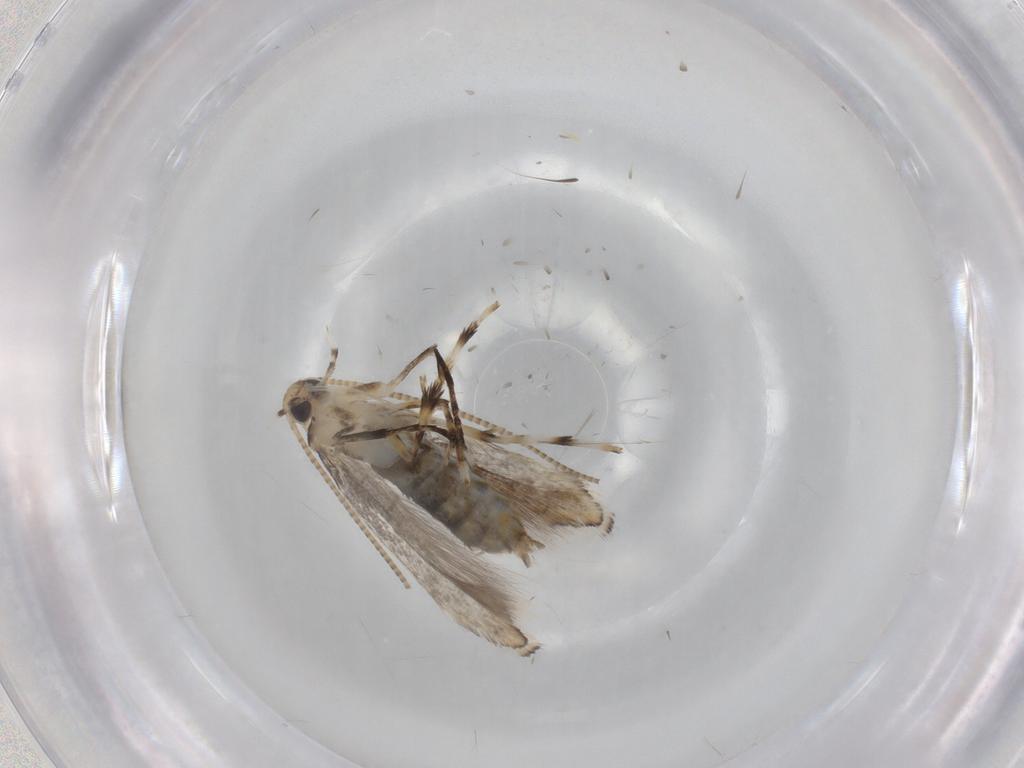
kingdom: Animalia
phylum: Arthropoda
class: Insecta
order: Lepidoptera
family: Gracillariidae
